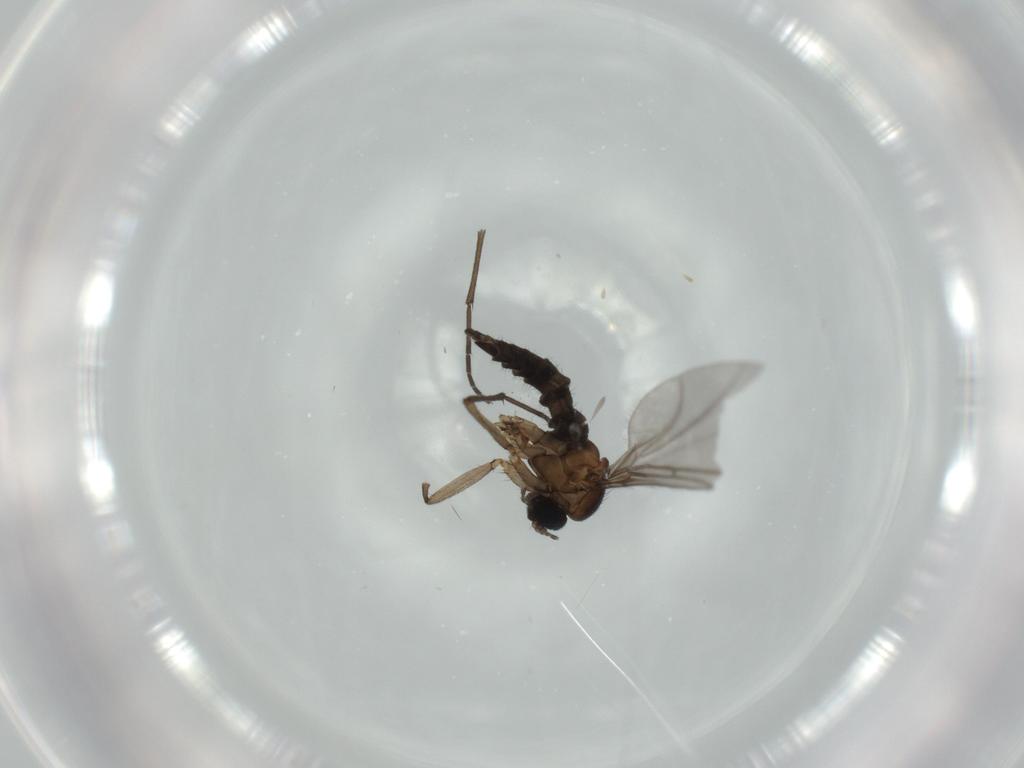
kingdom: Animalia
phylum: Arthropoda
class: Insecta
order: Diptera
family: Sciaridae
